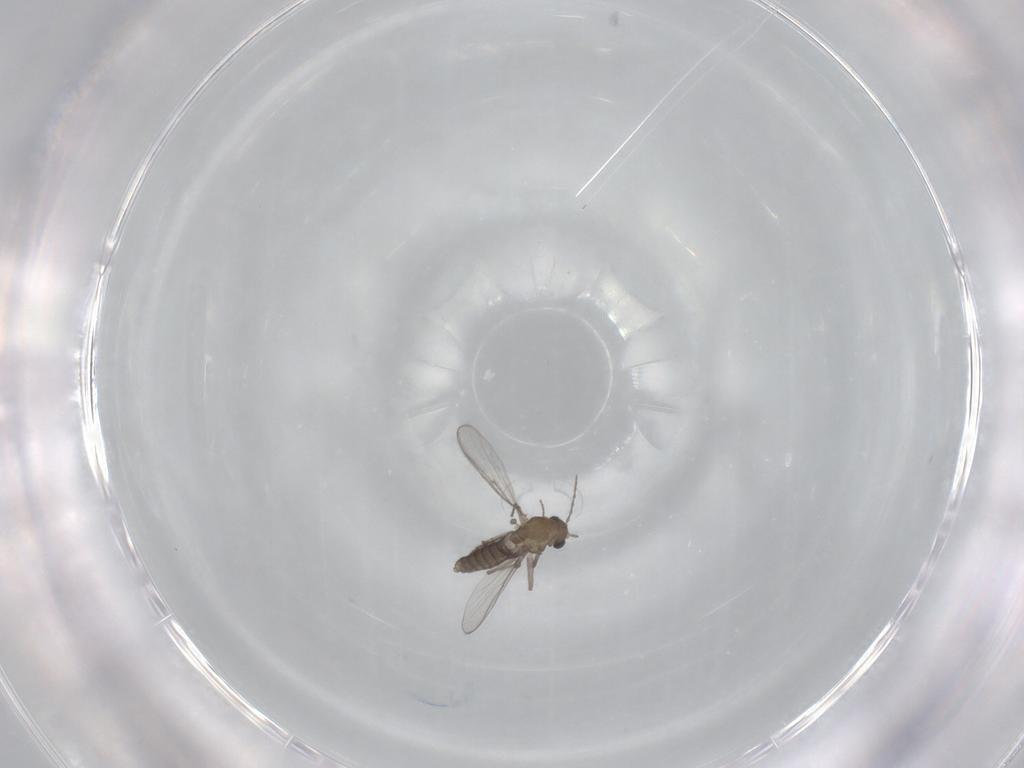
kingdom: Animalia
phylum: Arthropoda
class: Insecta
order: Diptera
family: Chironomidae
